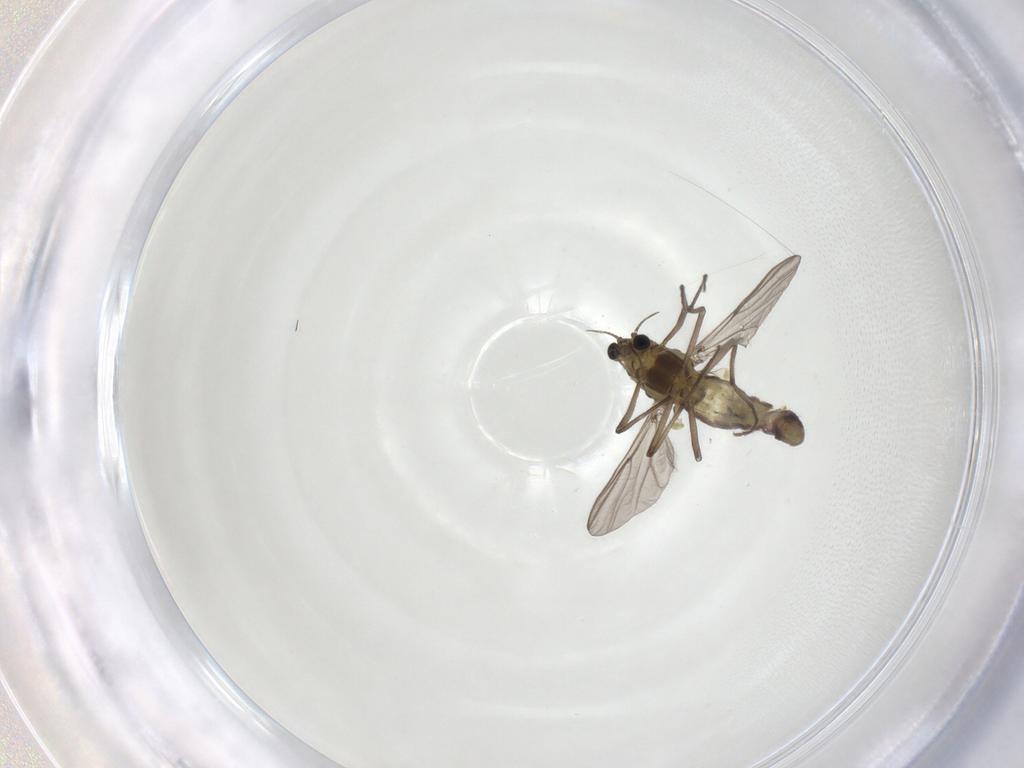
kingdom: Animalia
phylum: Arthropoda
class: Insecta
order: Diptera
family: Chironomidae
